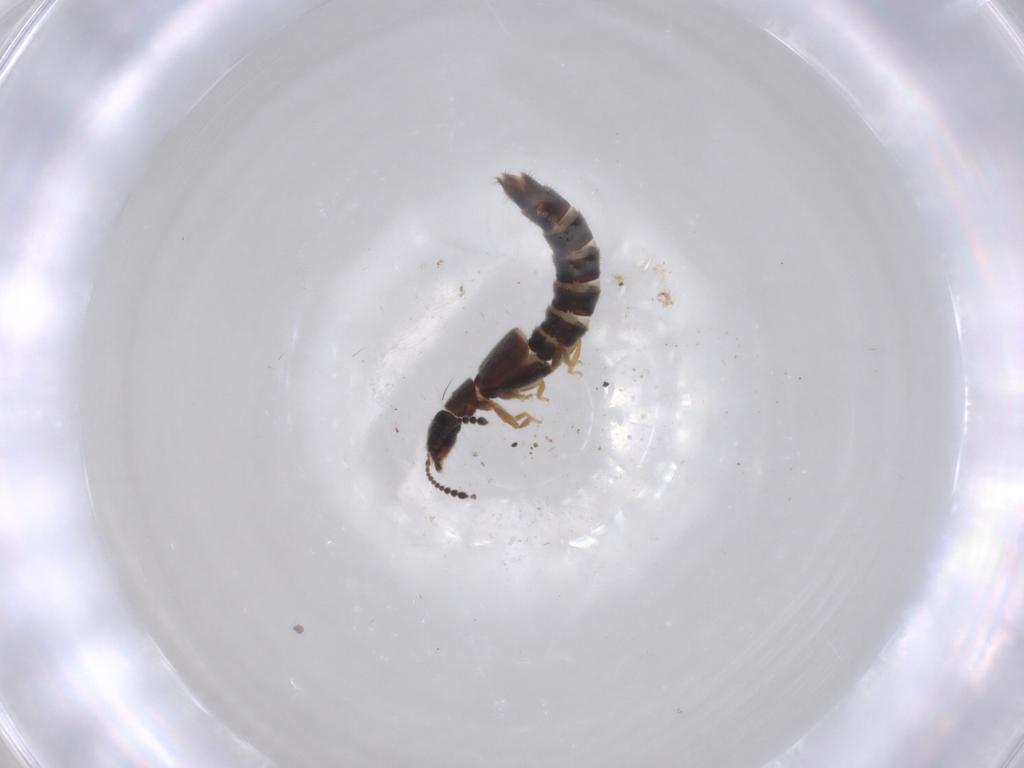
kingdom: Animalia
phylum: Arthropoda
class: Insecta
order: Coleoptera
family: Staphylinidae
